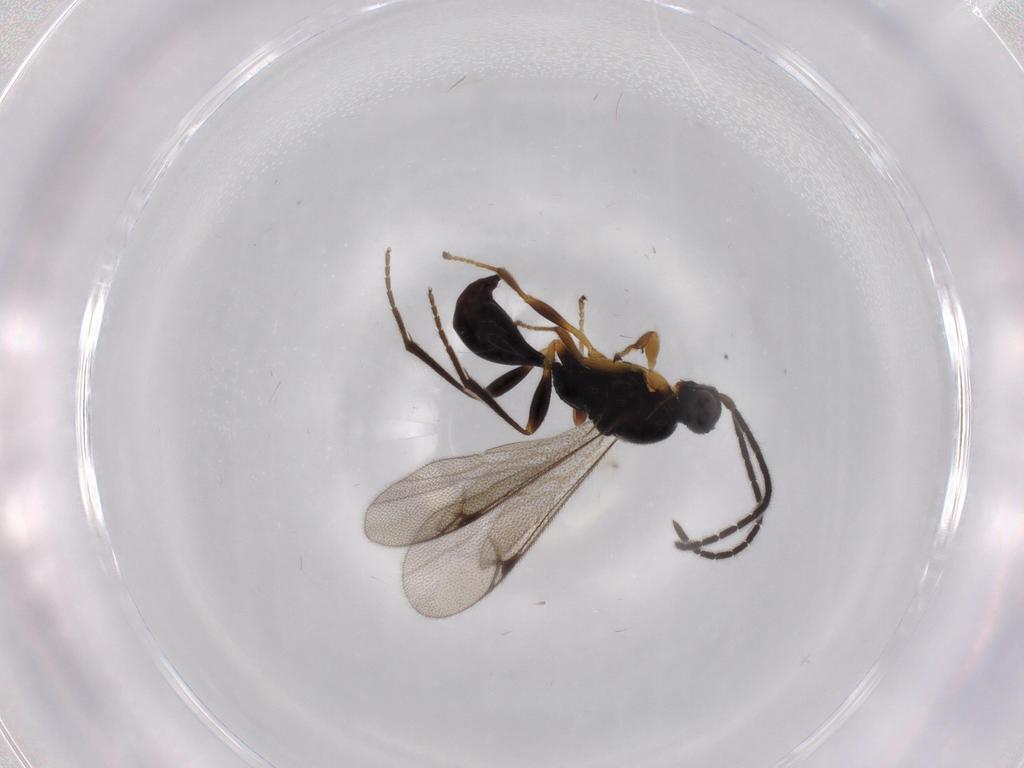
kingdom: Animalia
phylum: Arthropoda
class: Insecta
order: Hymenoptera
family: Proctotrupidae
